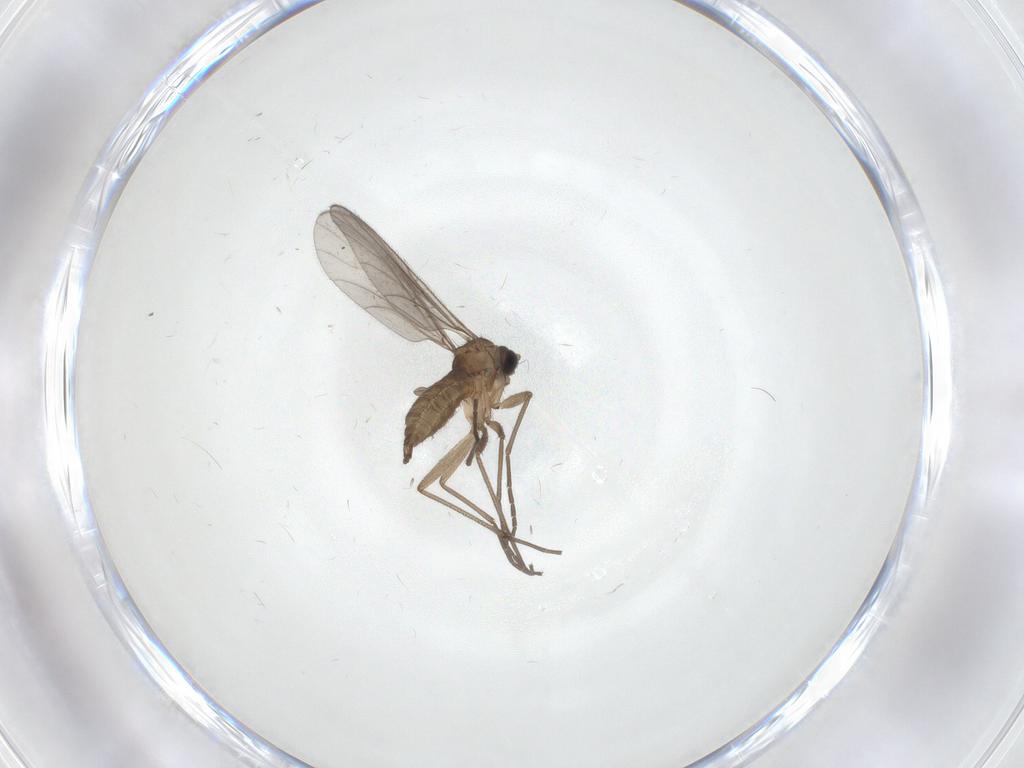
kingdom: Animalia
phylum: Arthropoda
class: Insecta
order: Diptera
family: Sciaridae
